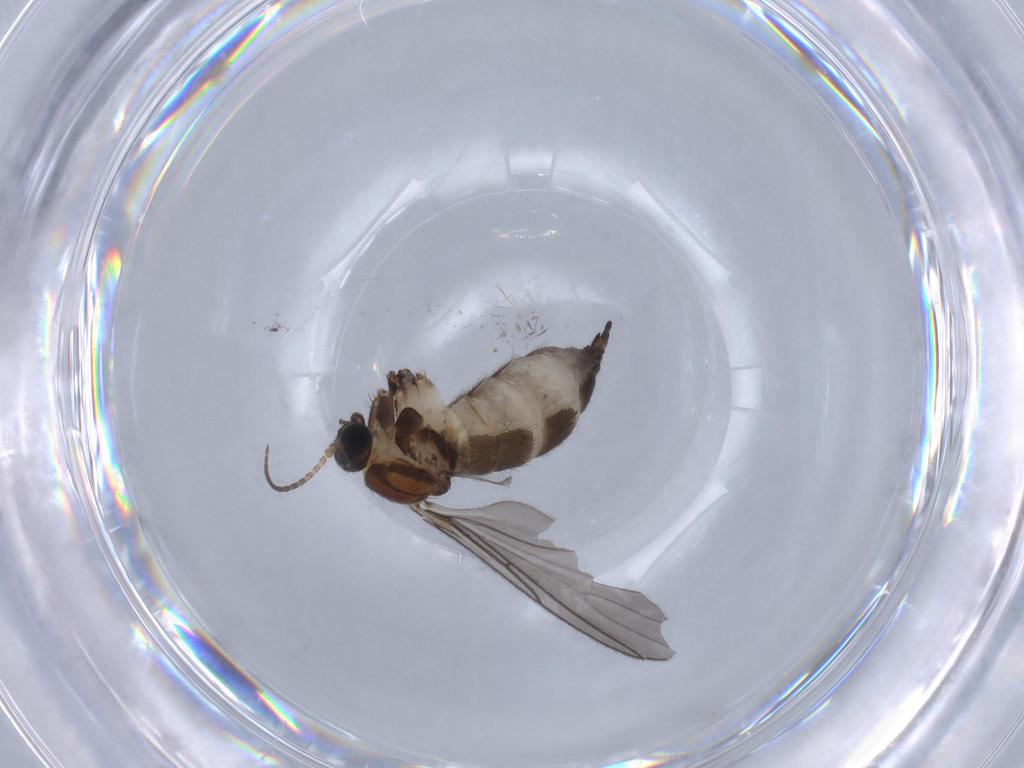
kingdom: Animalia
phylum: Arthropoda
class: Insecta
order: Diptera
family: Sciaridae
